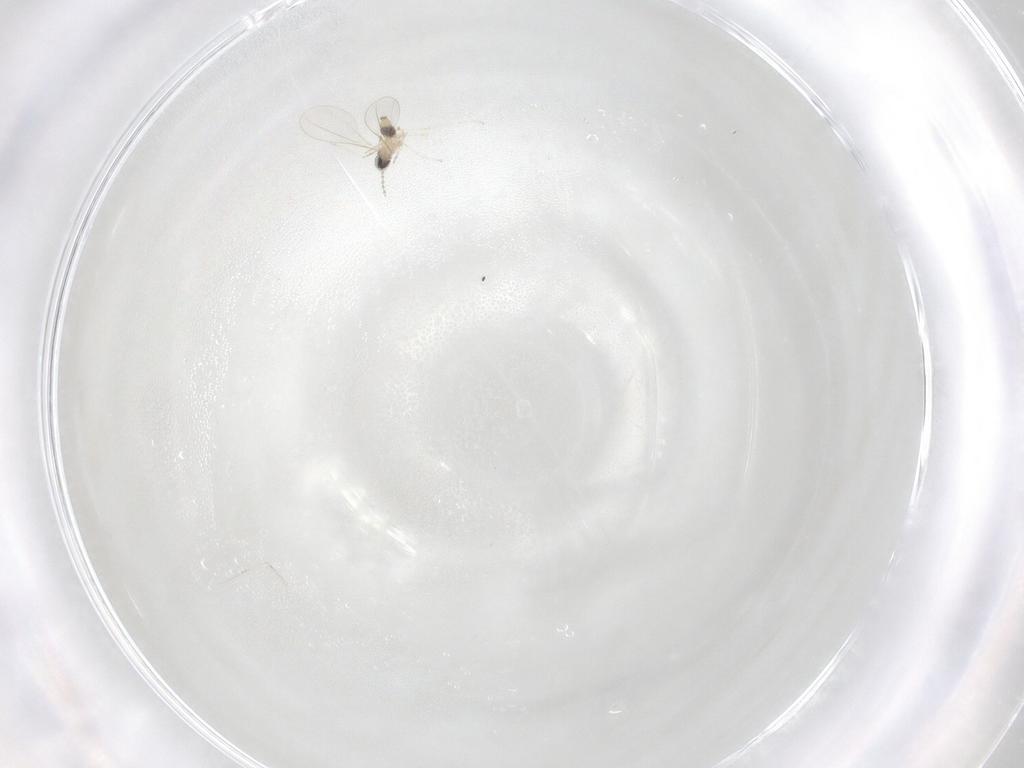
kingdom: Animalia
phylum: Arthropoda
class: Insecta
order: Diptera
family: Cecidomyiidae
